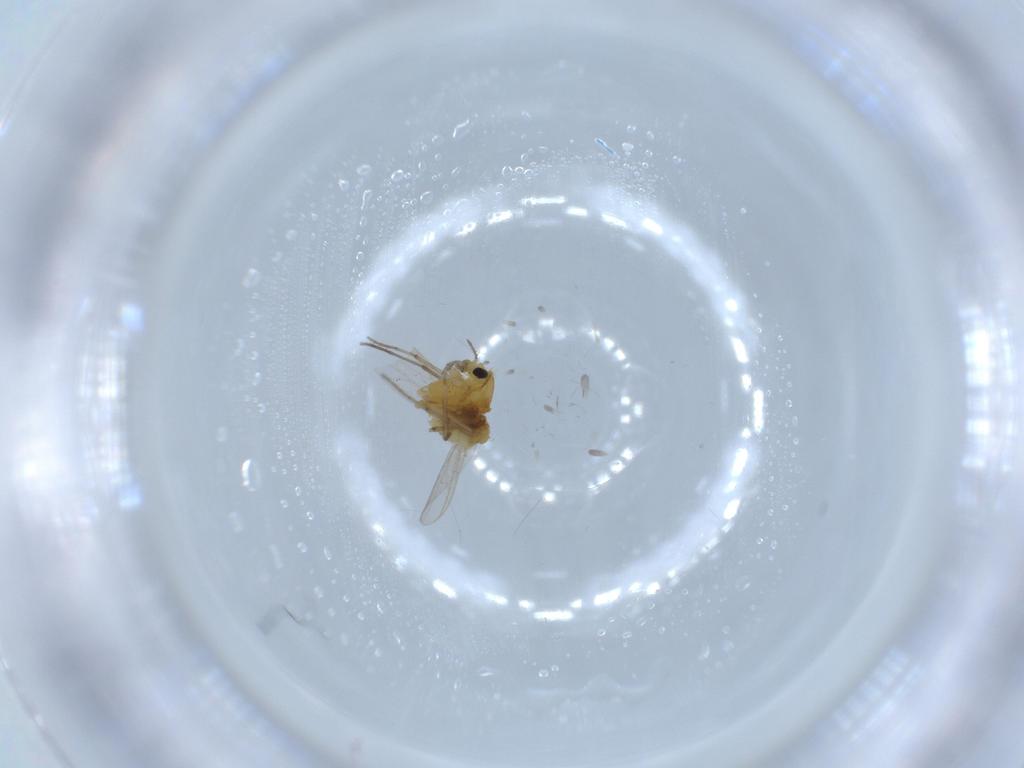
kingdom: Animalia
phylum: Arthropoda
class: Insecta
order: Diptera
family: Chironomidae
